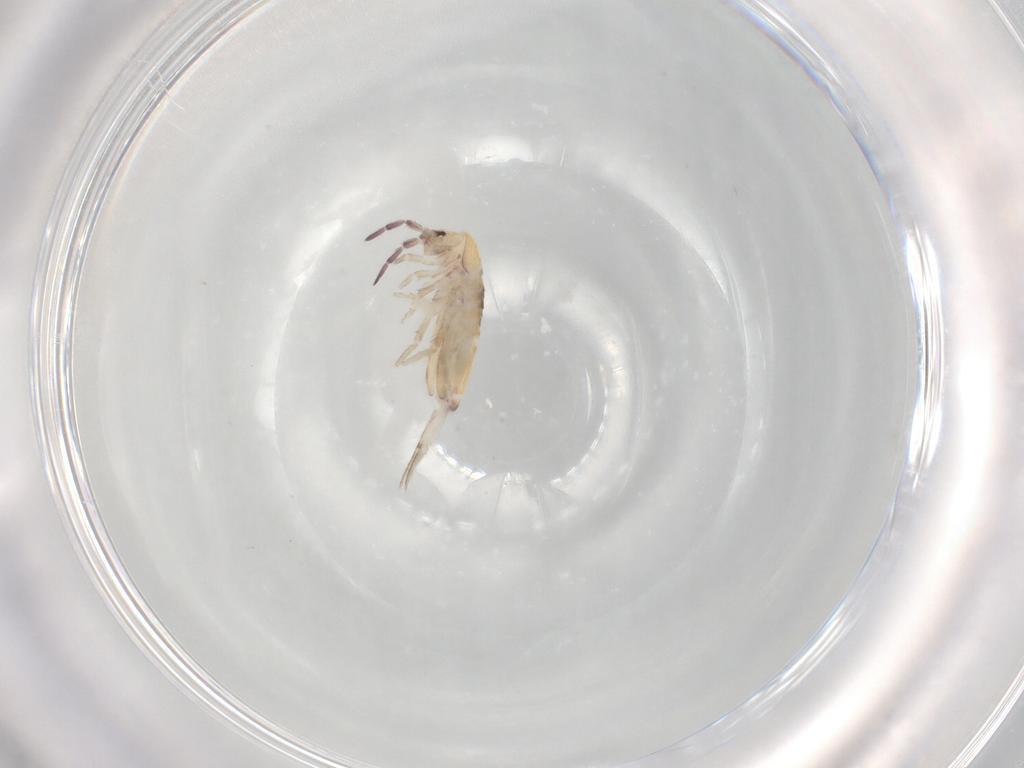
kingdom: Animalia
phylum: Arthropoda
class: Collembola
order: Entomobryomorpha
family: Entomobryidae
